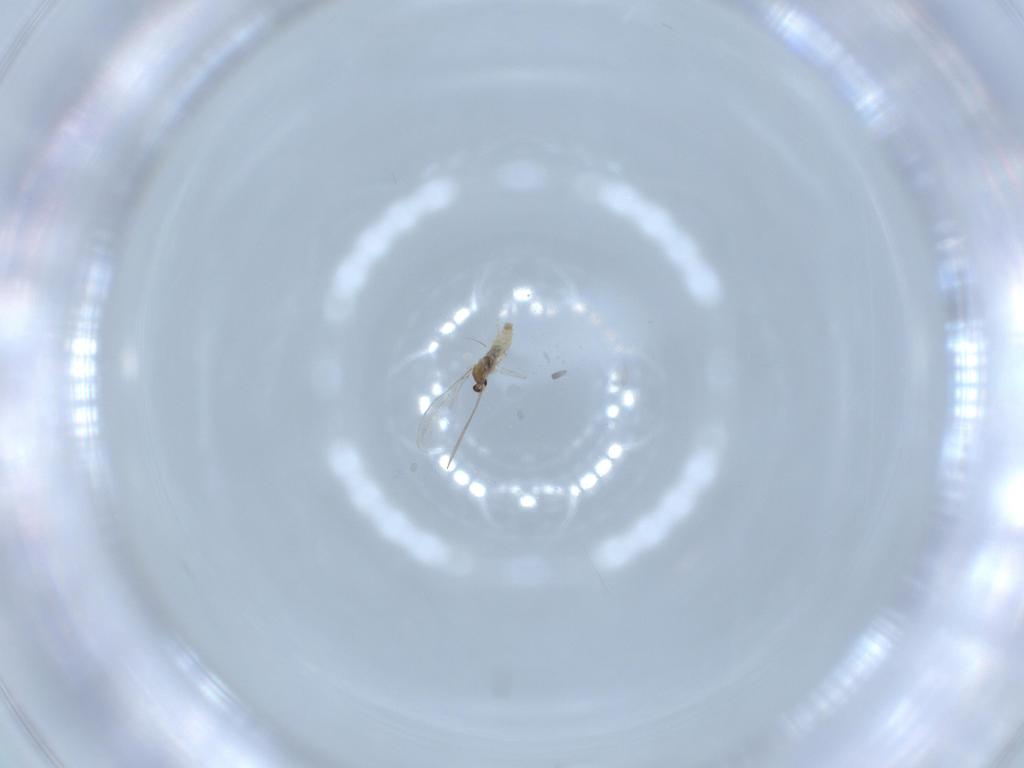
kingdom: Animalia
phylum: Arthropoda
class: Insecta
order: Diptera
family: Cecidomyiidae
